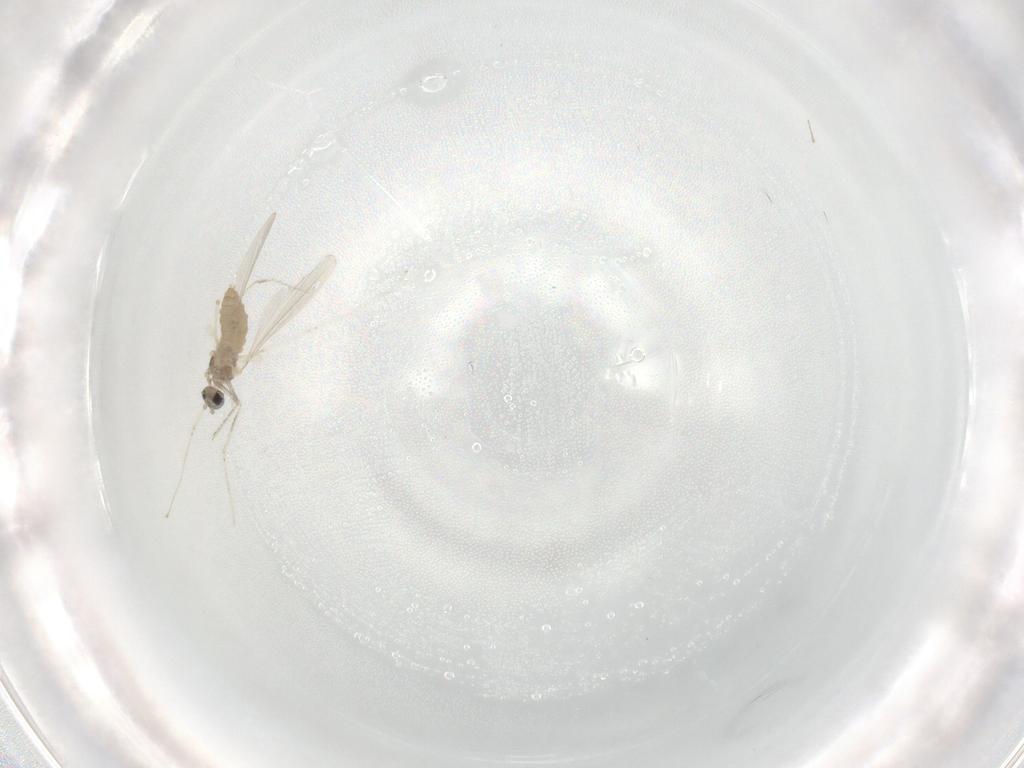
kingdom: Animalia
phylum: Arthropoda
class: Insecta
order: Diptera
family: Cecidomyiidae
